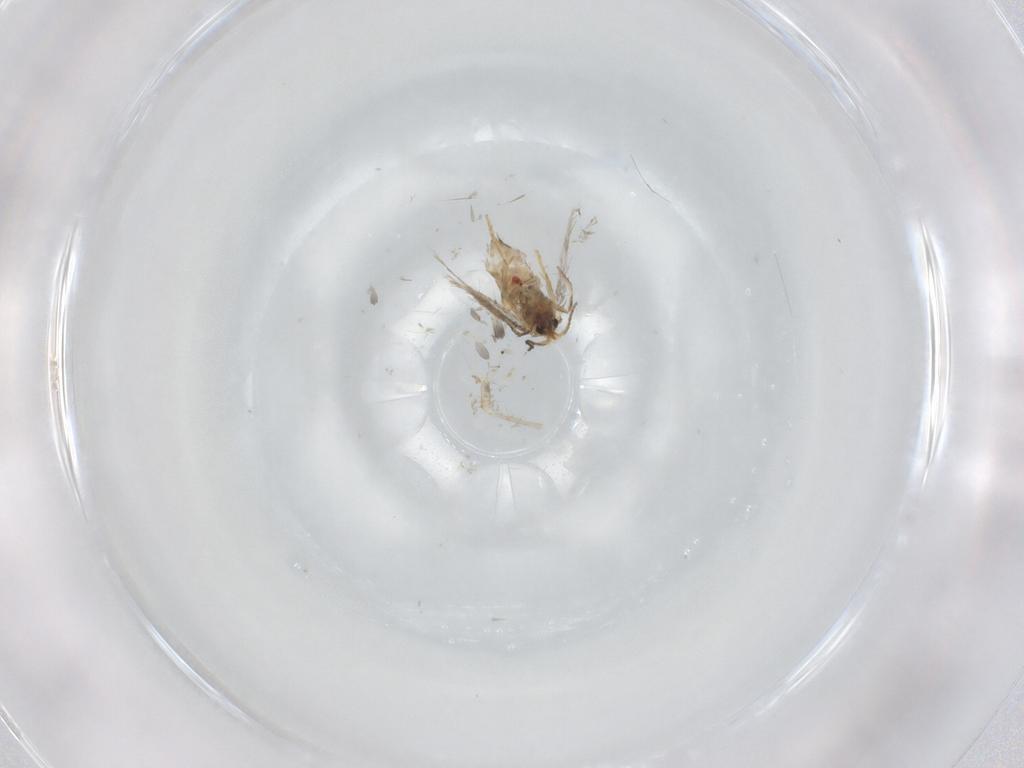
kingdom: Animalia
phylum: Arthropoda
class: Insecta
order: Lepidoptera
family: Nepticulidae
